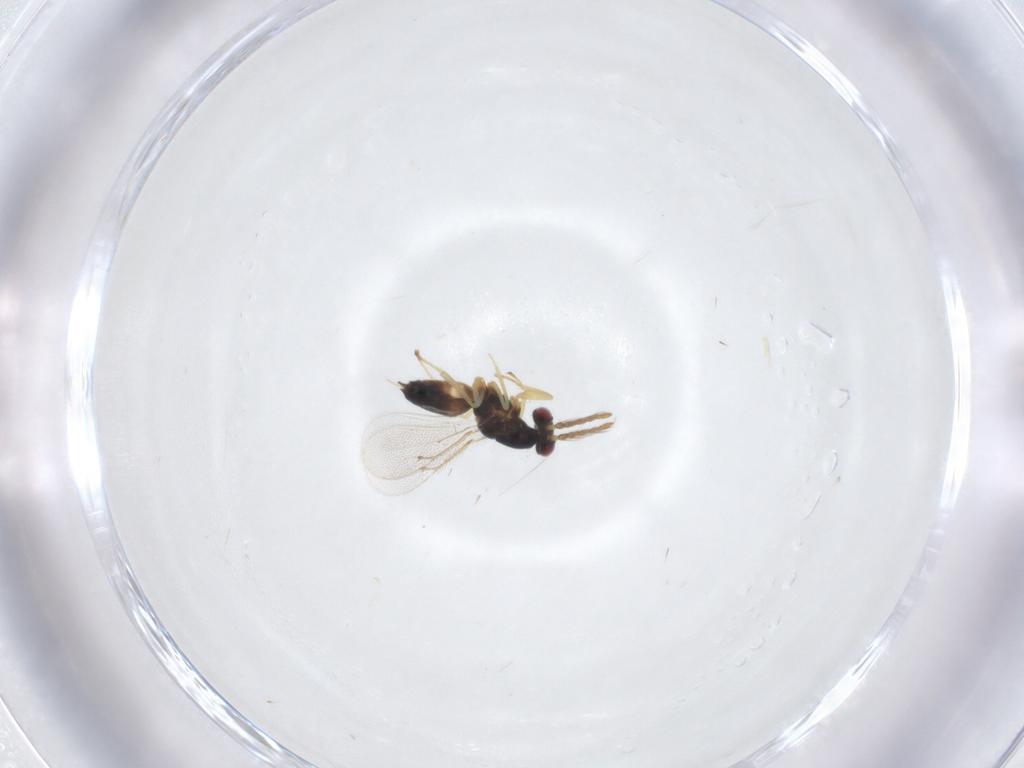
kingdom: Animalia
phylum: Arthropoda
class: Insecta
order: Hymenoptera
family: Eulophidae
